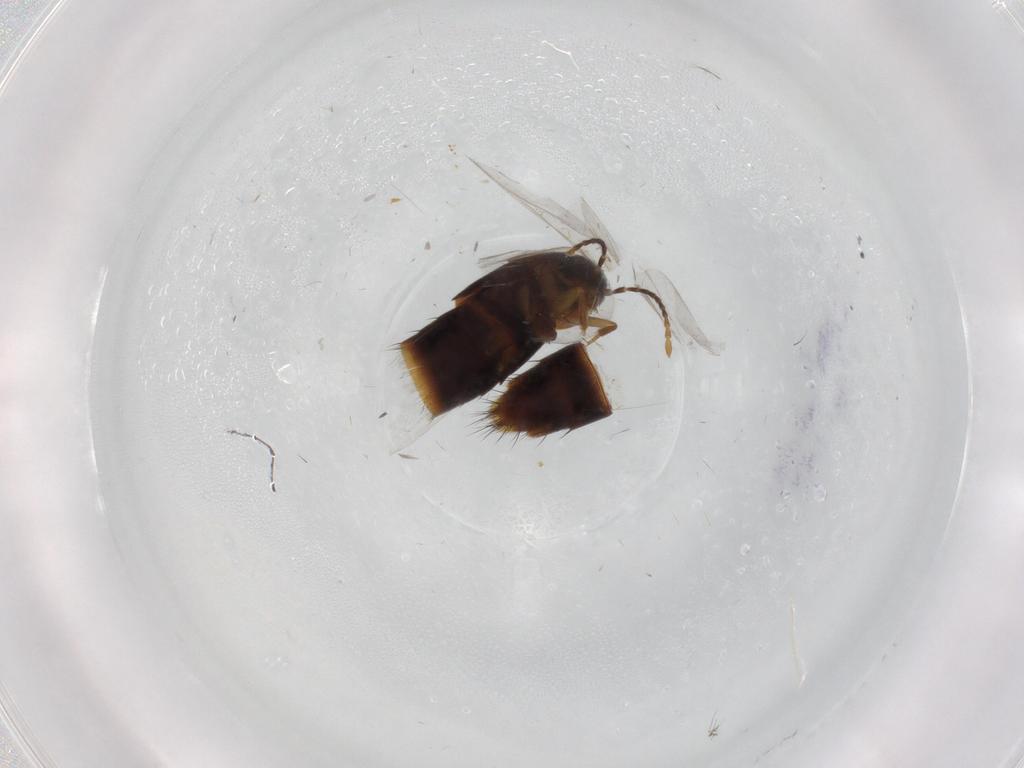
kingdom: Animalia
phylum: Arthropoda
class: Insecta
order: Coleoptera
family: Staphylinidae
